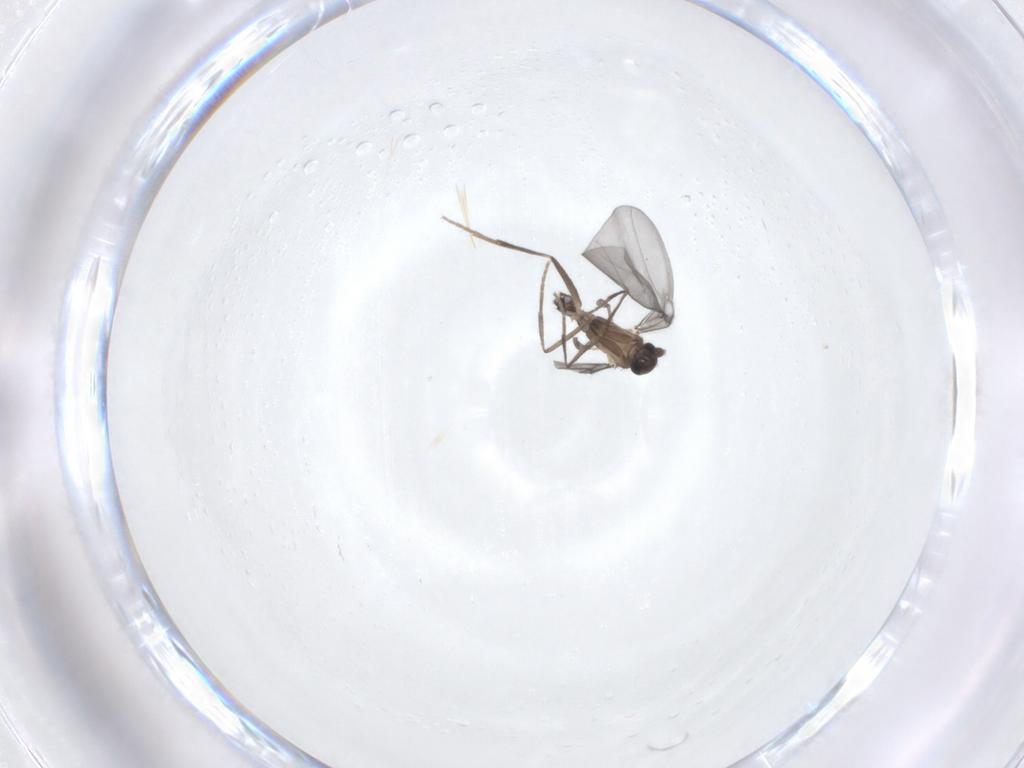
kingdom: Animalia
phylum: Arthropoda
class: Insecta
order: Diptera
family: Phoridae
